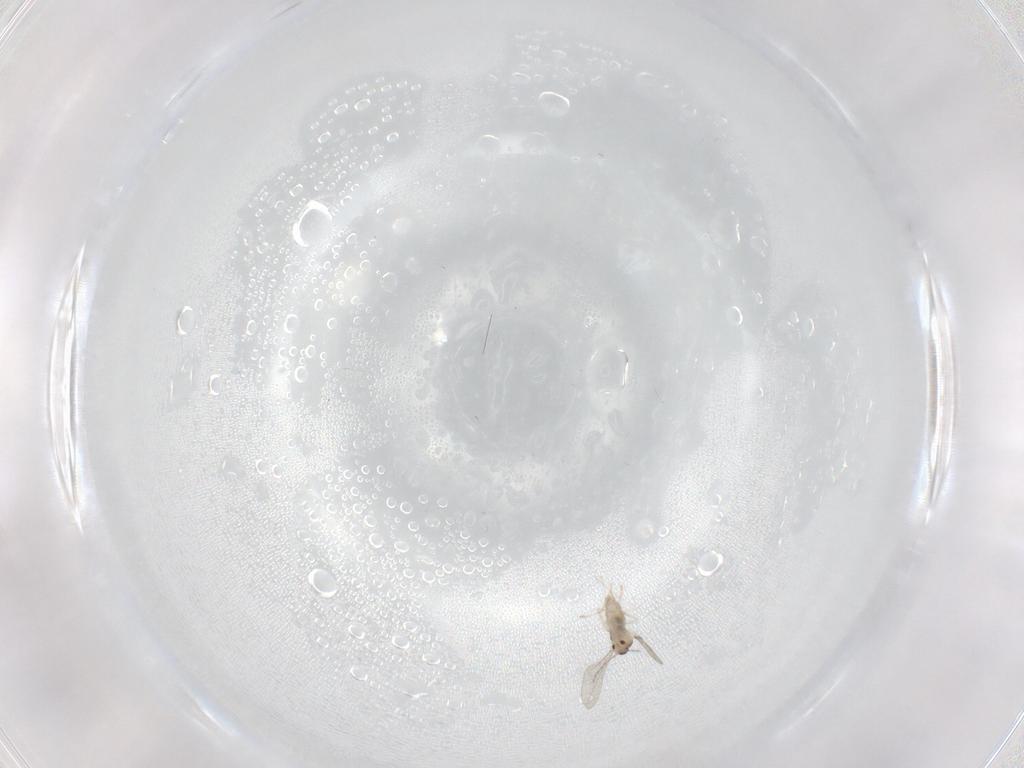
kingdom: Animalia
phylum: Arthropoda
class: Insecta
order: Diptera
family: Cecidomyiidae
